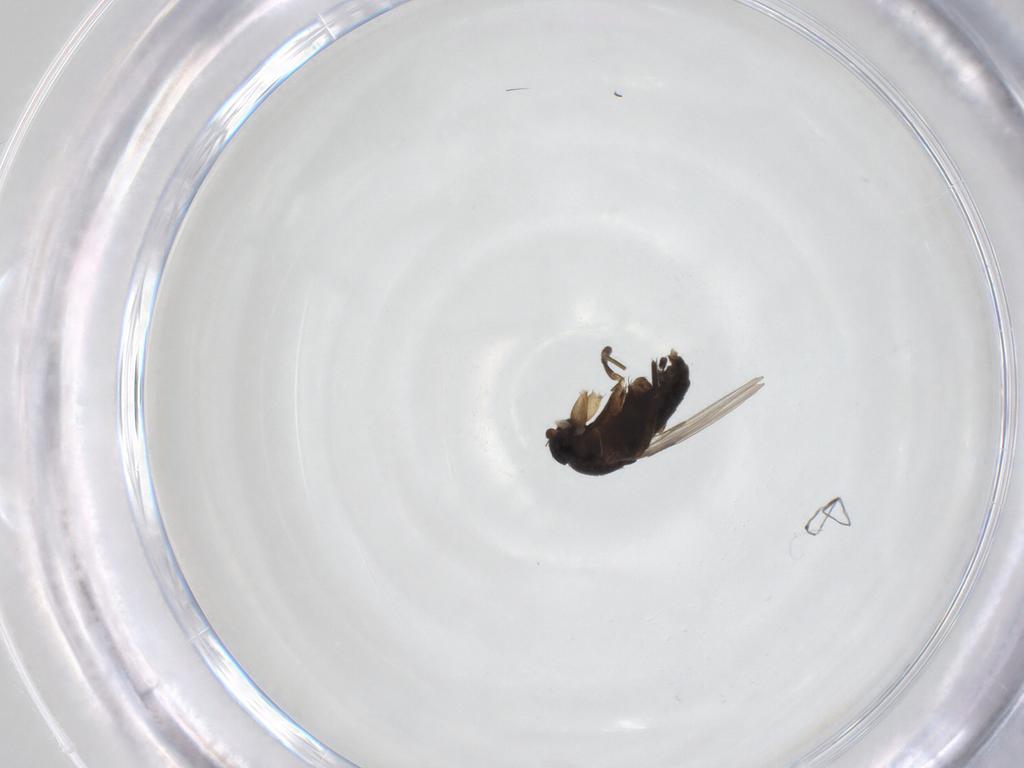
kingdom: Animalia
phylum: Arthropoda
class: Insecta
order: Diptera
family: Phoridae
